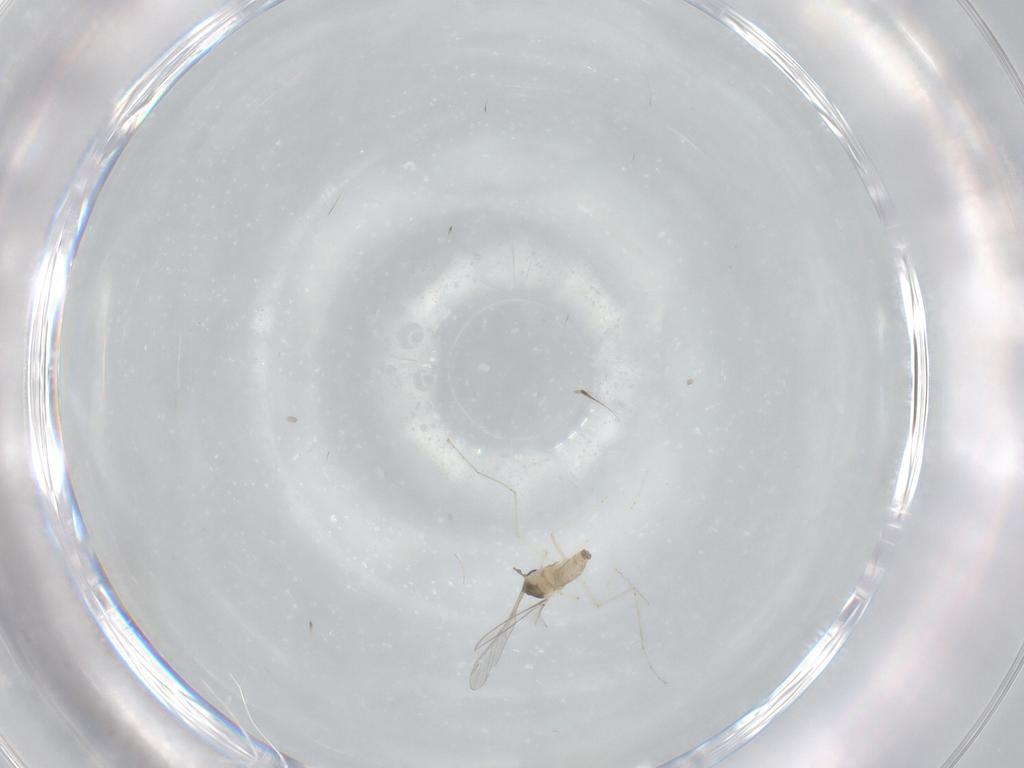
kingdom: Animalia
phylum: Arthropoda
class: Insecta
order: Diptera
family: Cecidomyiidae
